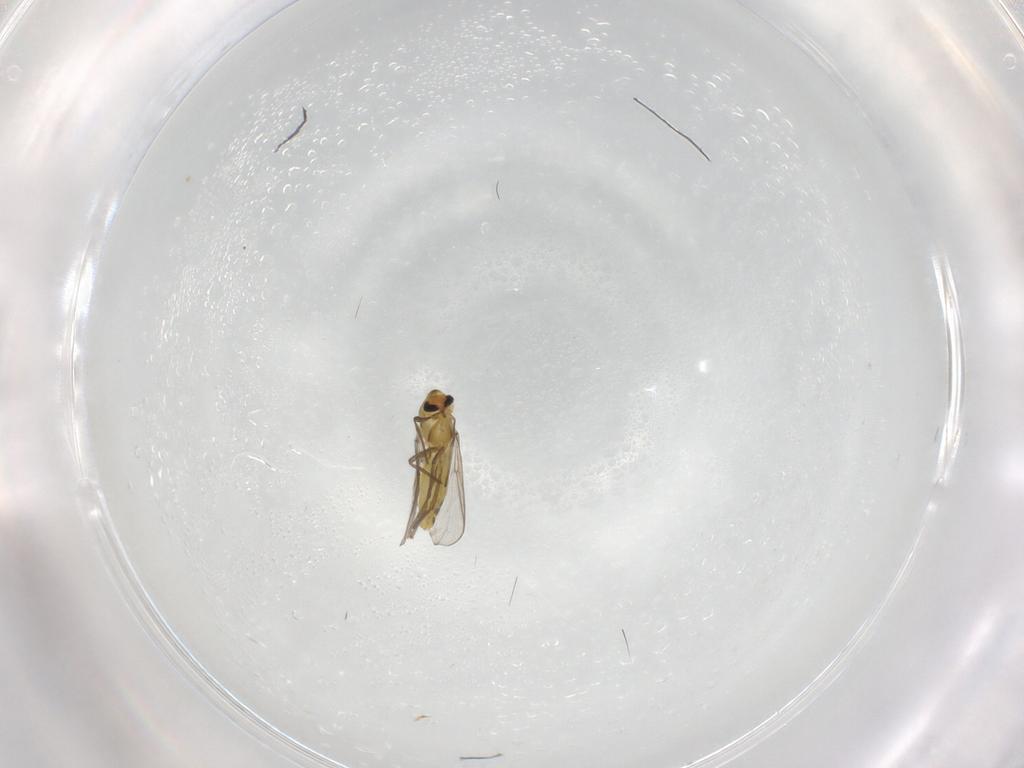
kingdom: Animalia
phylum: Arthropoda
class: Insecta
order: Diptera
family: Chironomidae
